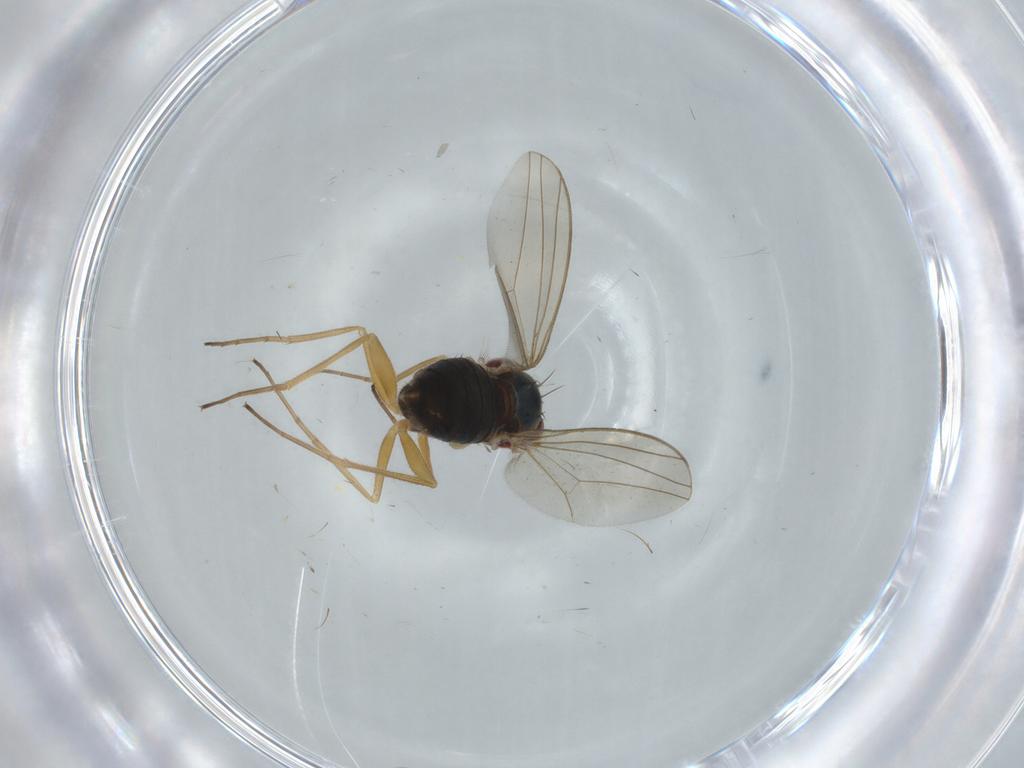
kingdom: Animalia
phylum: Arthropoda
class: Insecta
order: Diptera
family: Dolichopodidae
